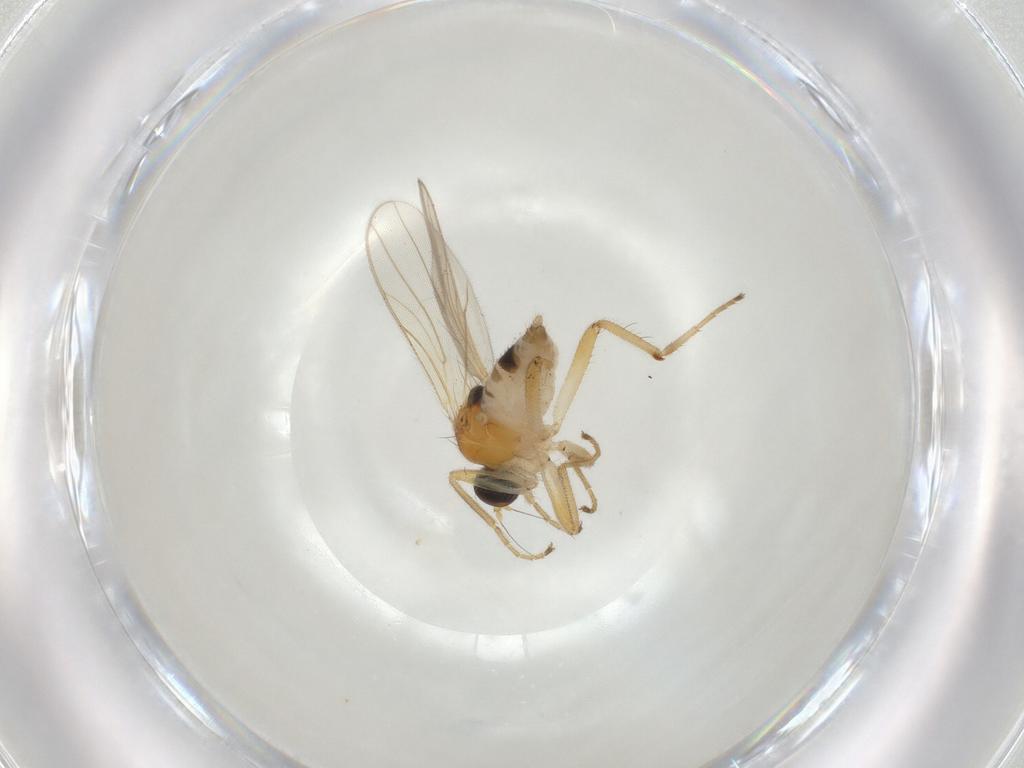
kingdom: Animalia
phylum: Arthropoda
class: Insecta
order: Diptera
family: Hybotidae
